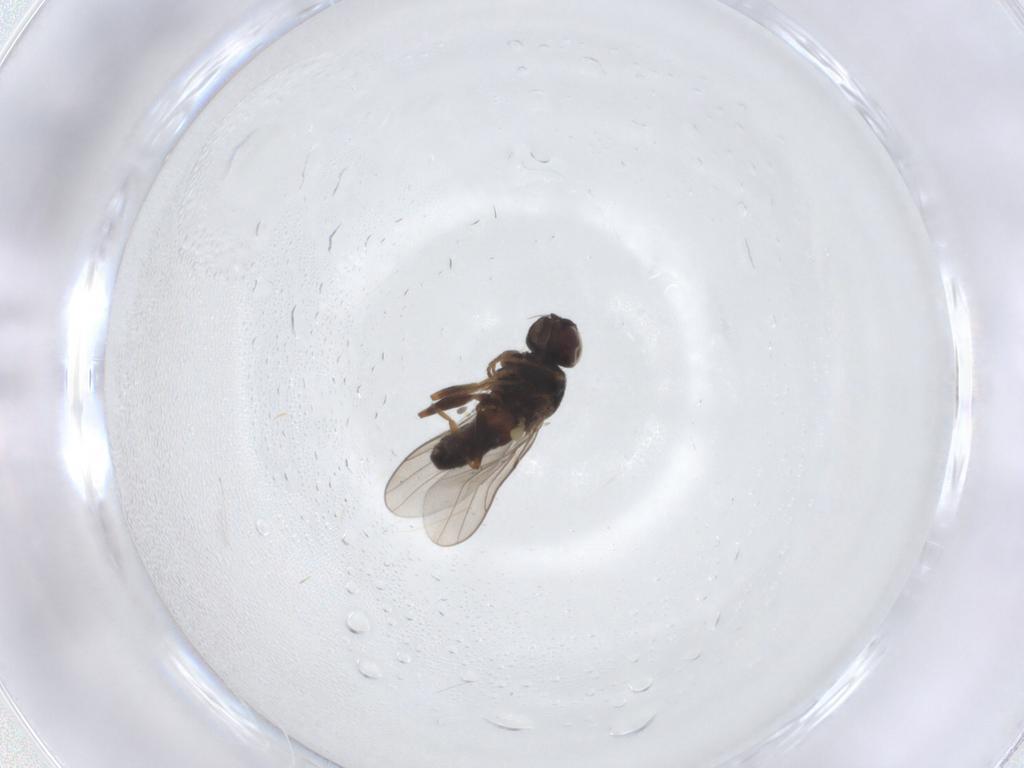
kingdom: Animalia
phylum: Arthropoda
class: Insecta
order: Diptera
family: Chloropidae
